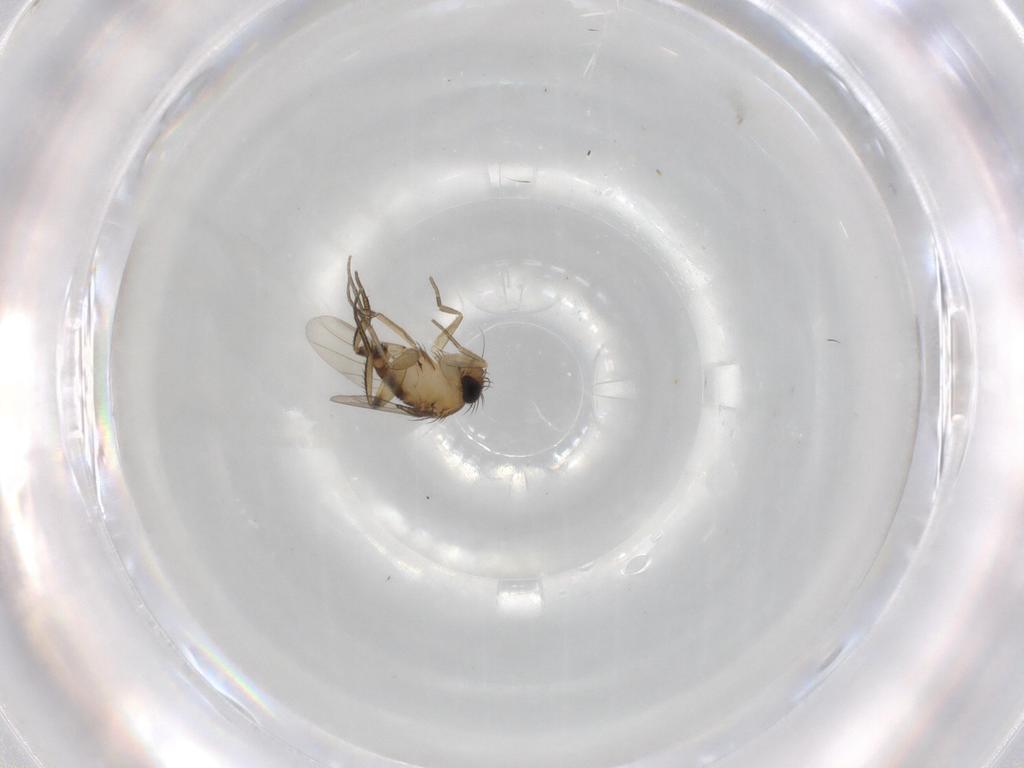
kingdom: Animalia
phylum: Arthropoda
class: Insecta
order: Diptera
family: Phoridae
